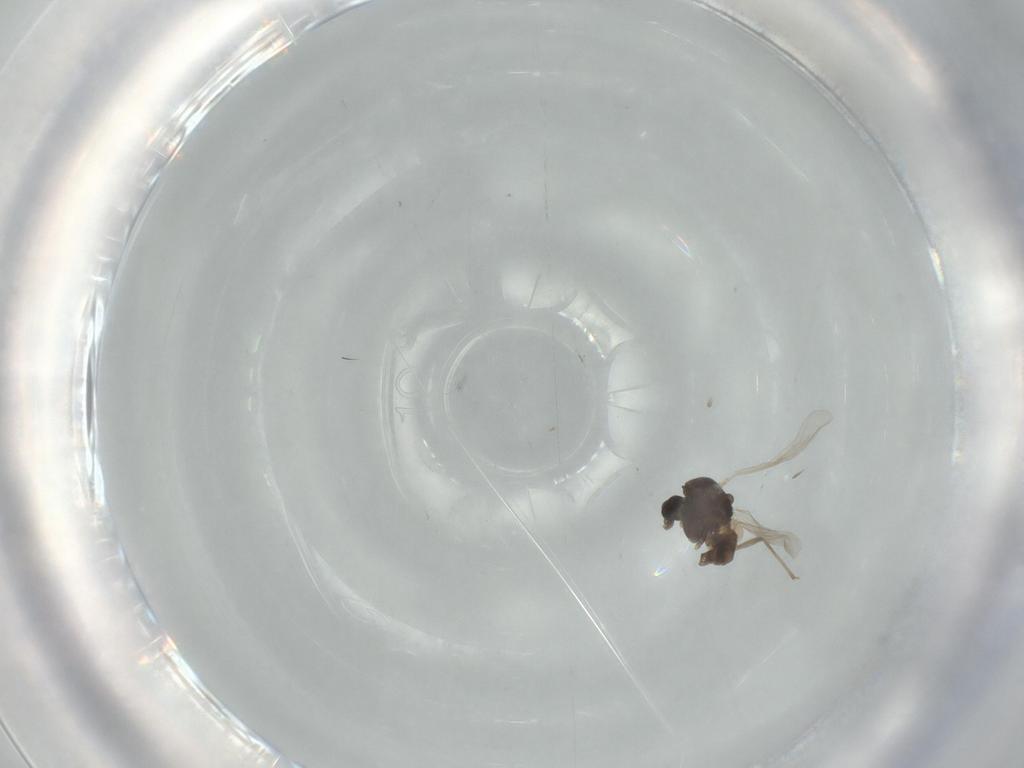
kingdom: Animalia
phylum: Arthropoda
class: Insecta
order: Diptera
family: Chironomidae
